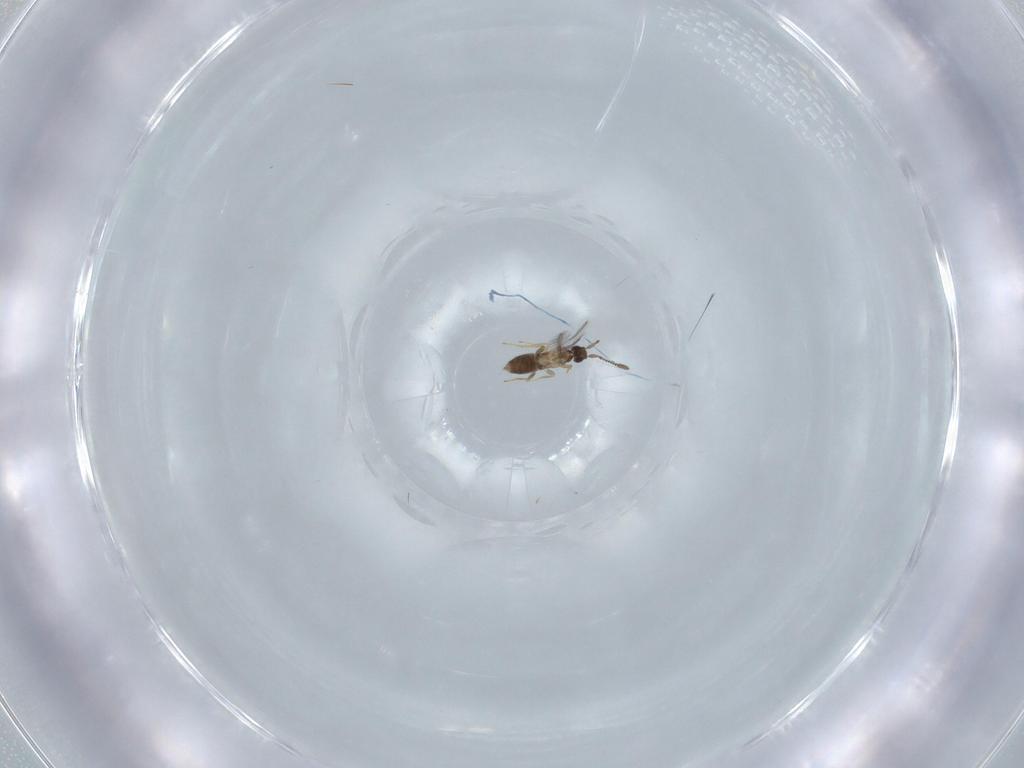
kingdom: Animalia
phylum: Arthropoda
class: Insecta
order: Hymenoptera
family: Mymaridae
